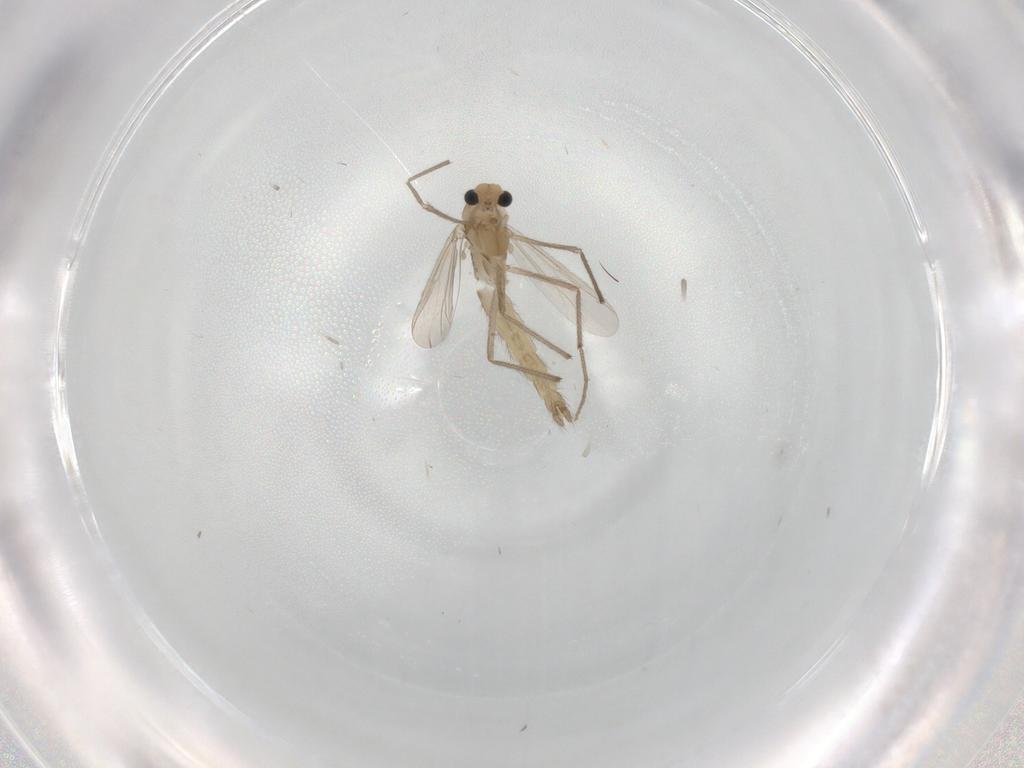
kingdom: Animalia
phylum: Arthropoda
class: Insecta
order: Diptera
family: Chironomidae
